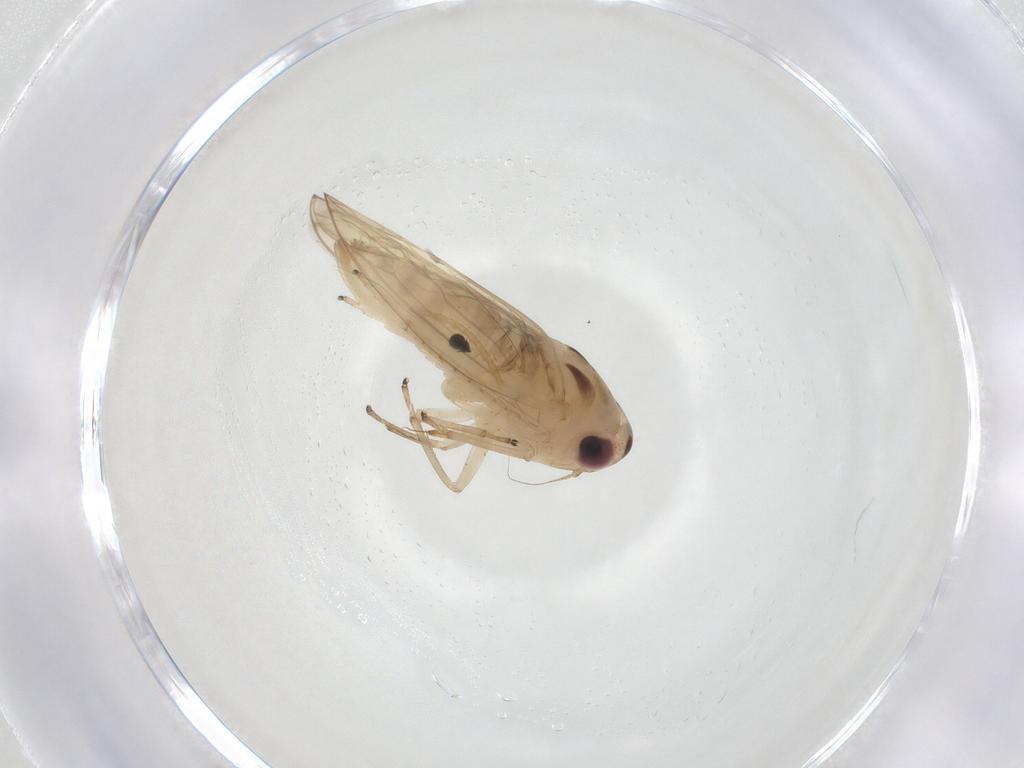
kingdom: Animalia
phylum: Arthropoda
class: Insecta
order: Hemiptera
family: Cicadellidae
